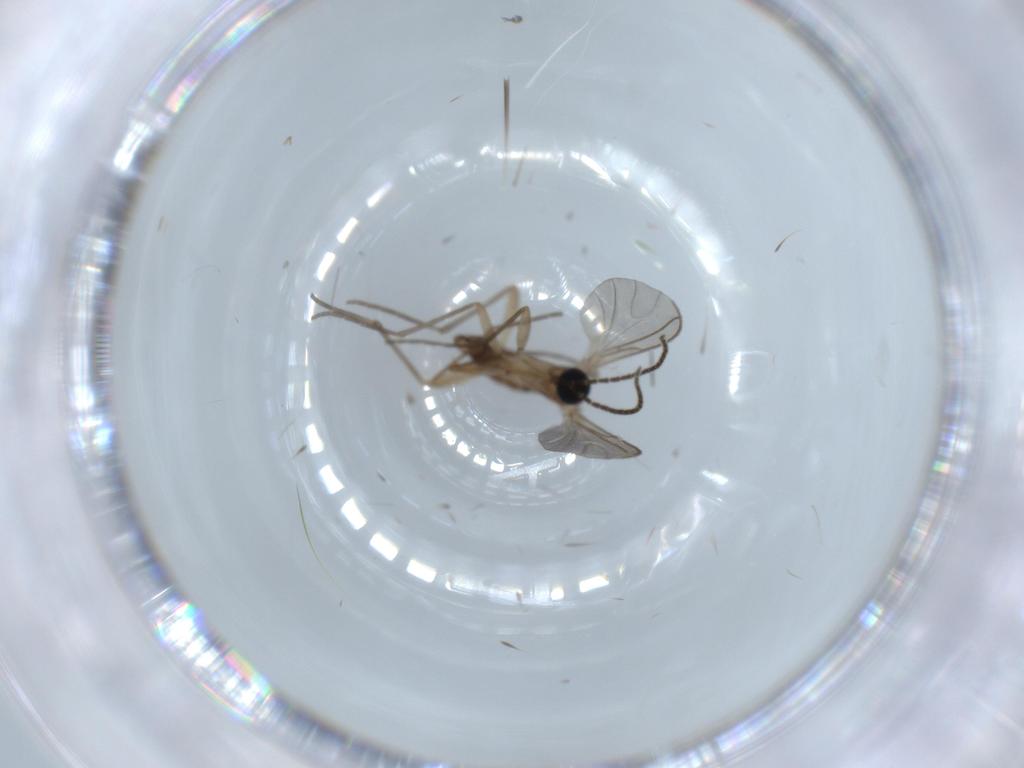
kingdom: Animalia
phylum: Arthropoda
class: Insecta
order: Diptera
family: Sciaridae
